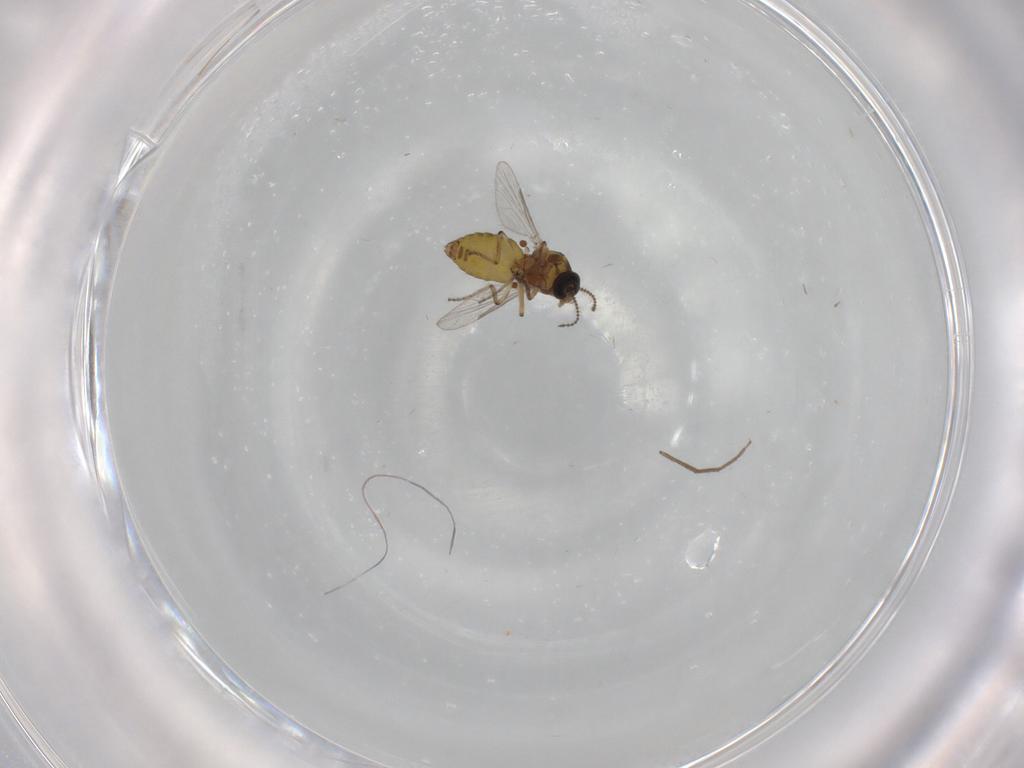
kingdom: Animalia
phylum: Arthropoda
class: Insecta
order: Diptera
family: Ceratopogonidae
